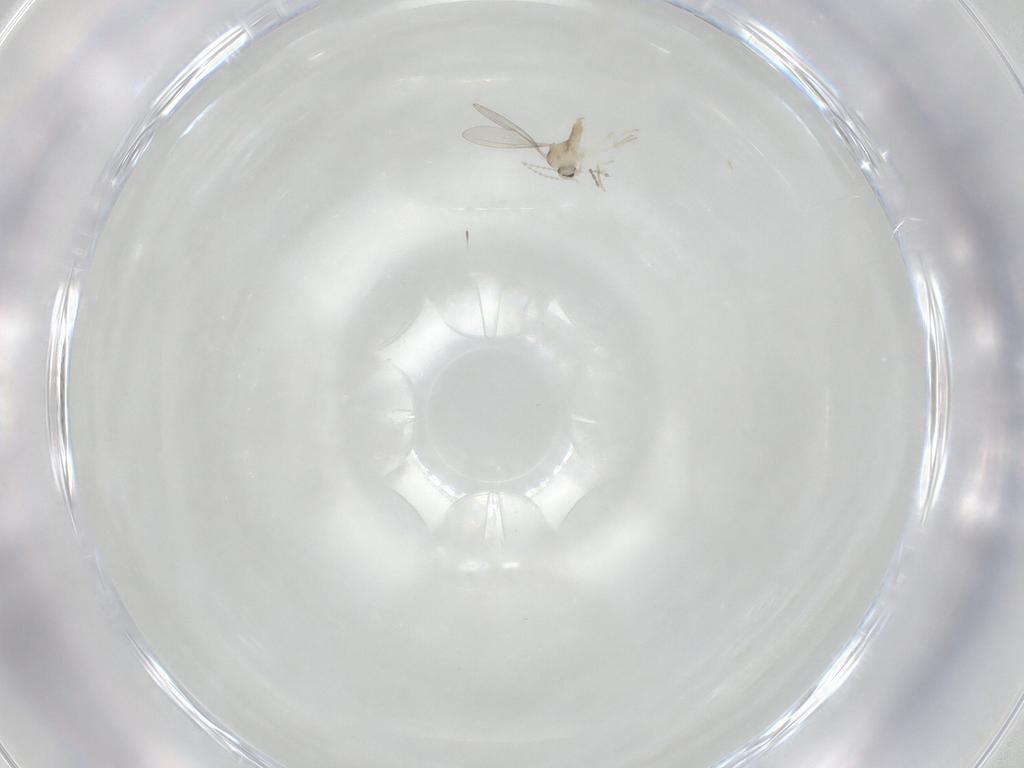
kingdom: Animalia
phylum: Arthropoda
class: Insecta
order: Diptera
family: Cecidomyiidae
